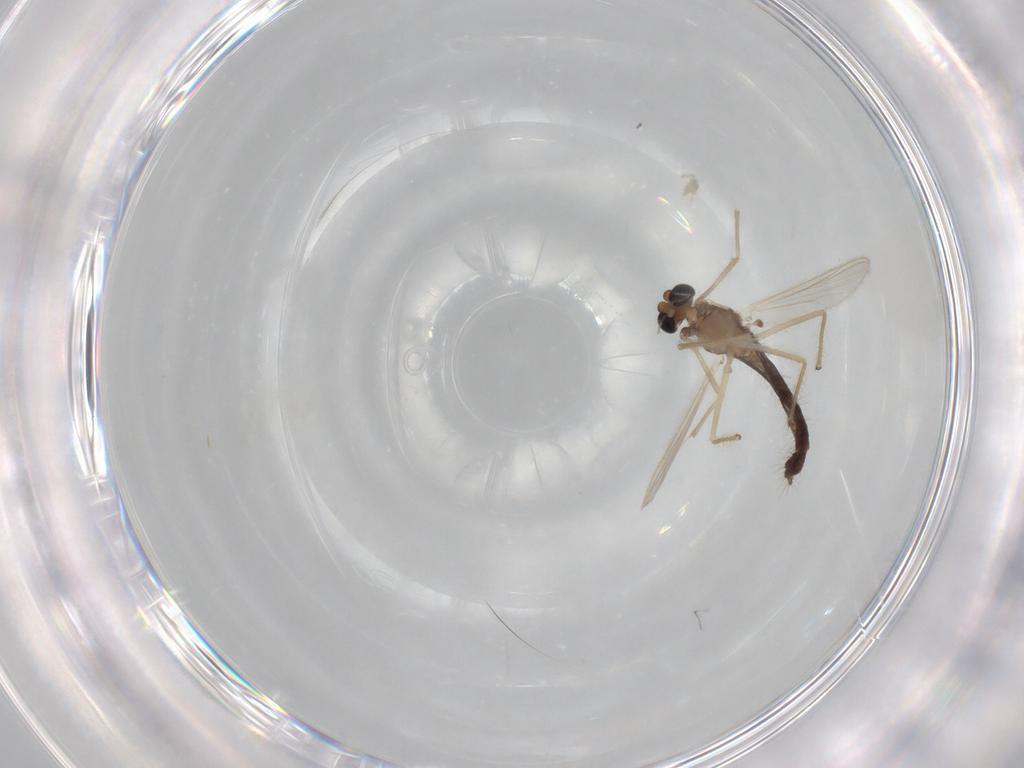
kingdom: Animalia
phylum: Arthropoda
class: Insecta
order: Diptera
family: Chironomidae
